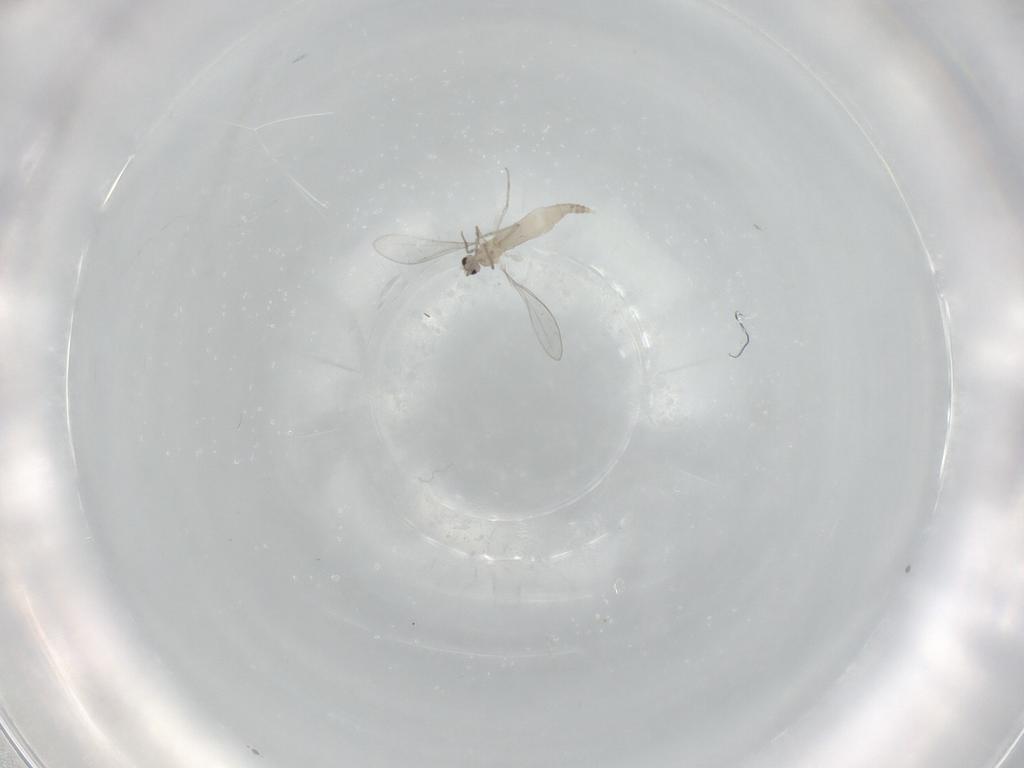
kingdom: Animalia
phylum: Arthropoda
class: Insecta
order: Diptera
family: Cecidomyiidae
